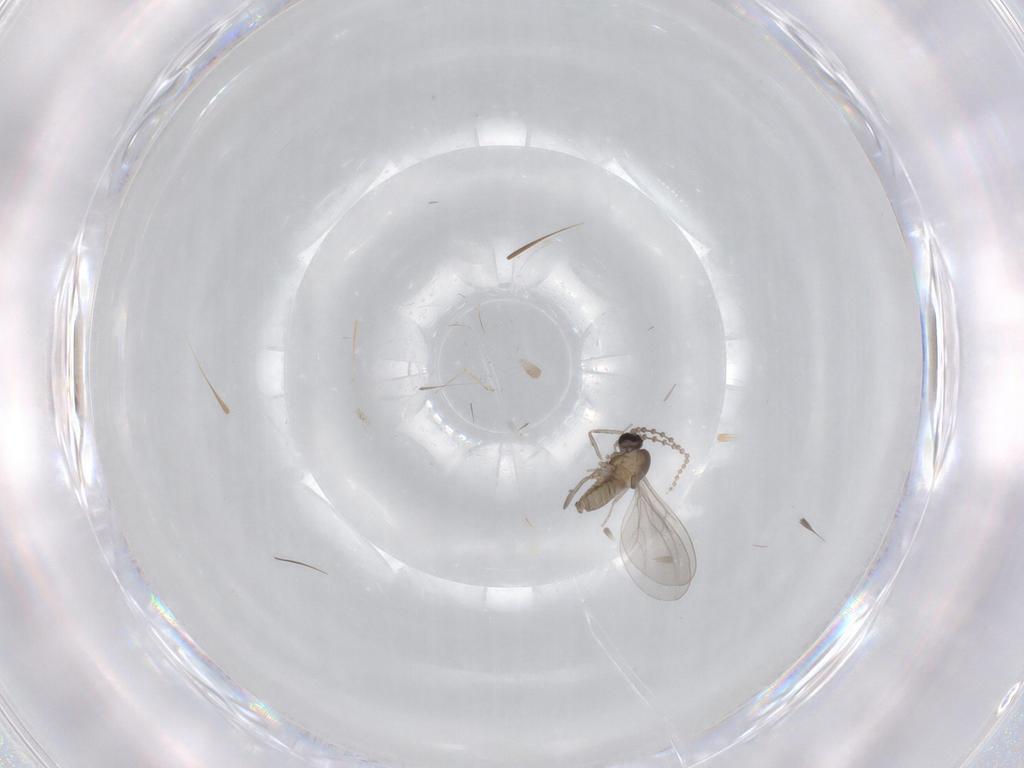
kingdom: Animalia
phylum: Arthropoda
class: Insecta
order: Diptera
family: Chironomidae
